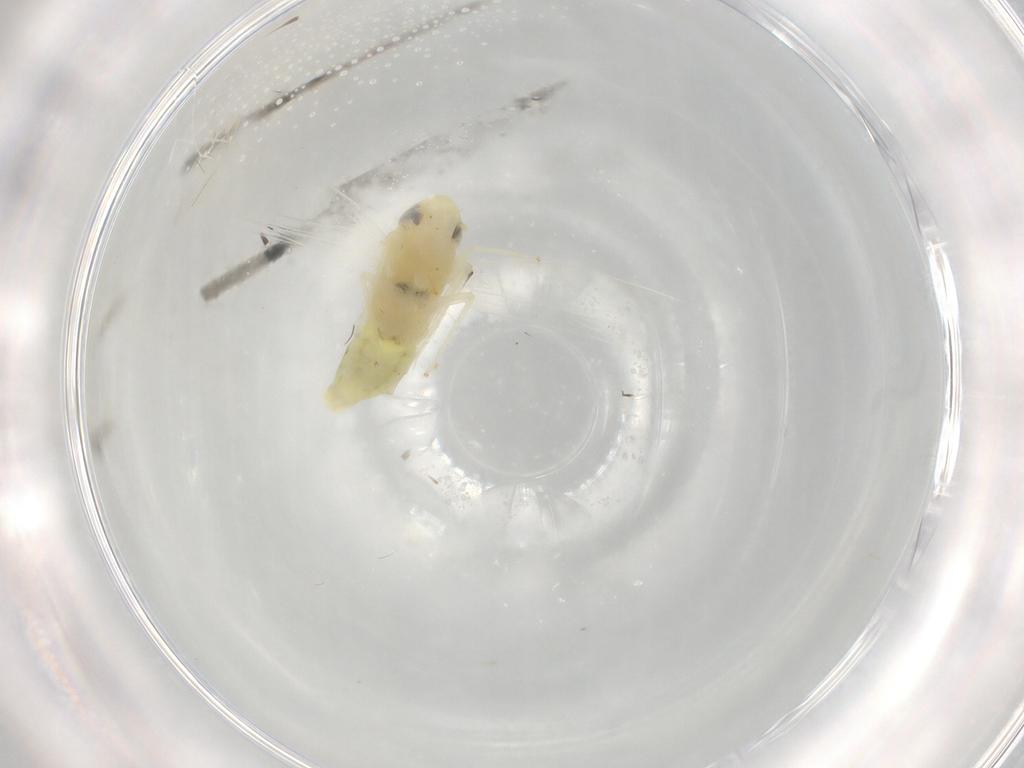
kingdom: Animalia
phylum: Arthropoda
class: Insecta
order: Hemiptera
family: Cicadellidae
